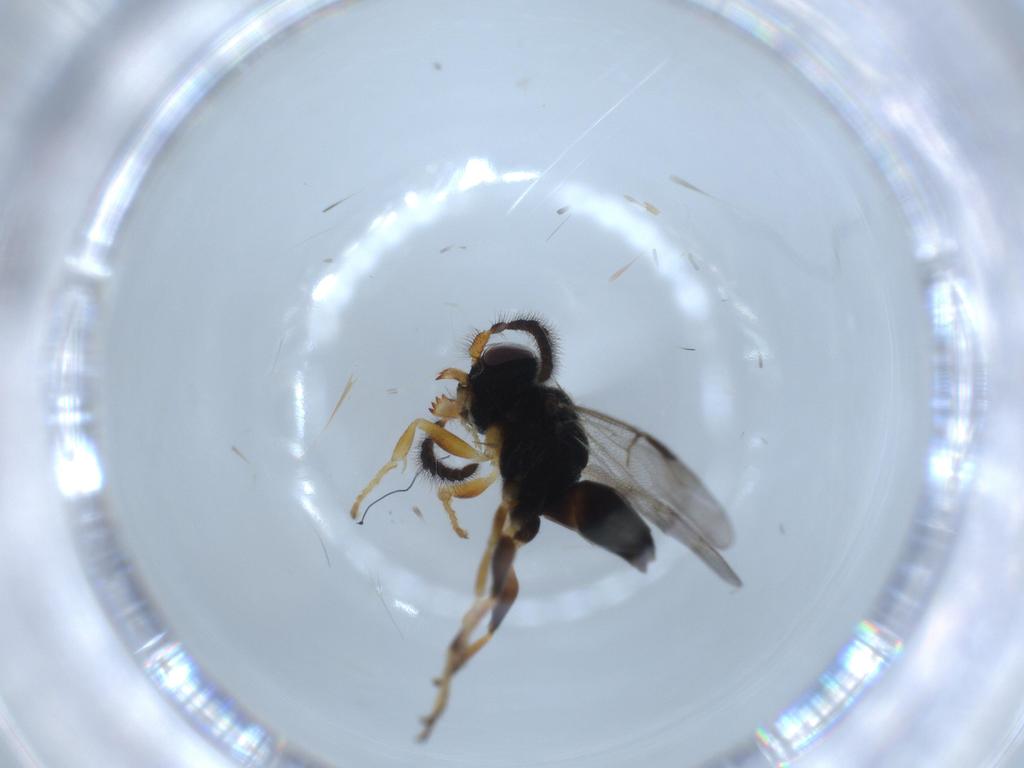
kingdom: Animalia
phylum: Arthropoda
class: Insecta
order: Hymenoptera
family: Dryinidae
